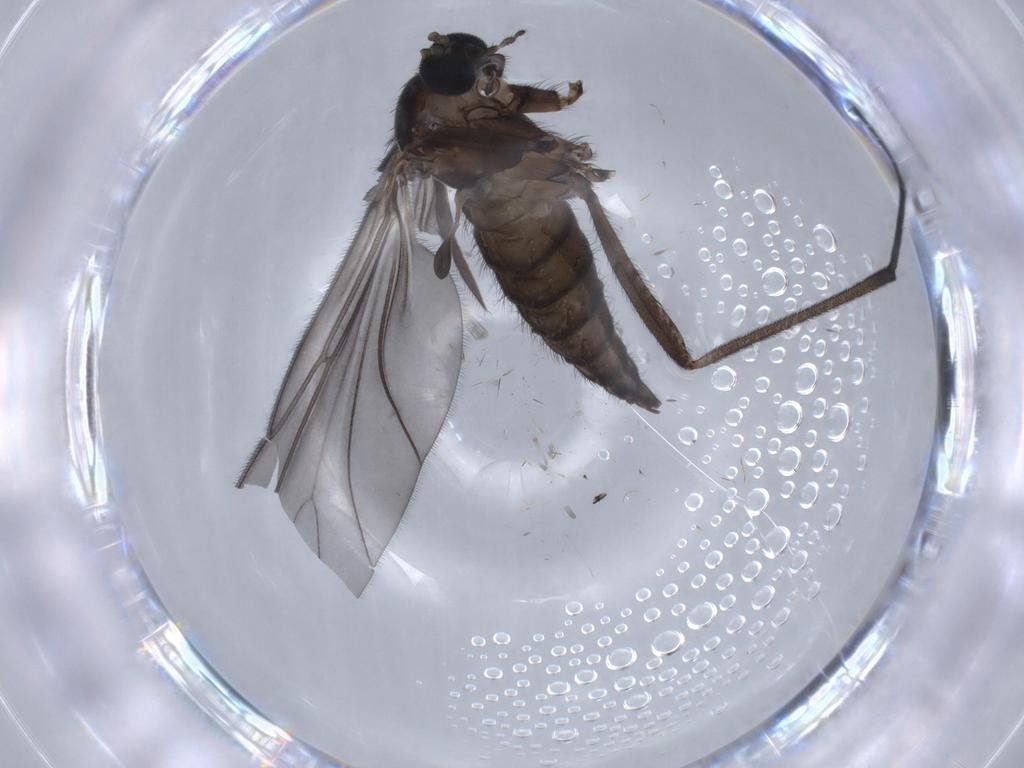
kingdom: Animalia
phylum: Arthropoda
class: Insecta
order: Diptera
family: Sciaridae
